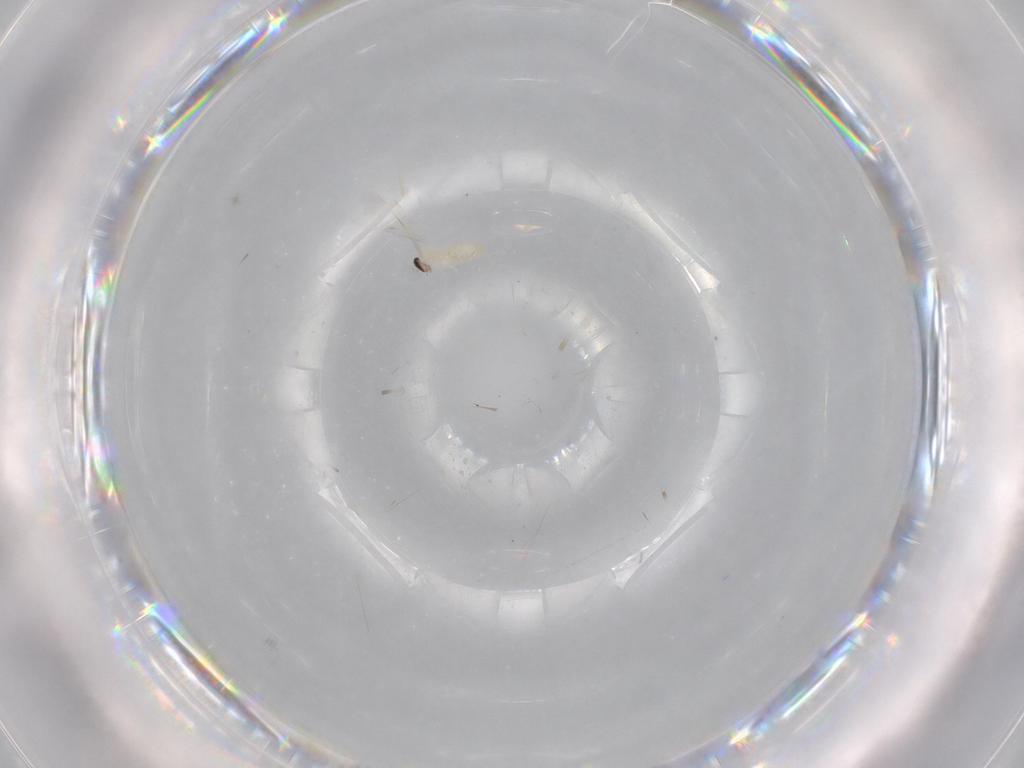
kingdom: Animalia
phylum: Arthropoda
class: Insecta
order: Diptera
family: Cecidomyiidae
